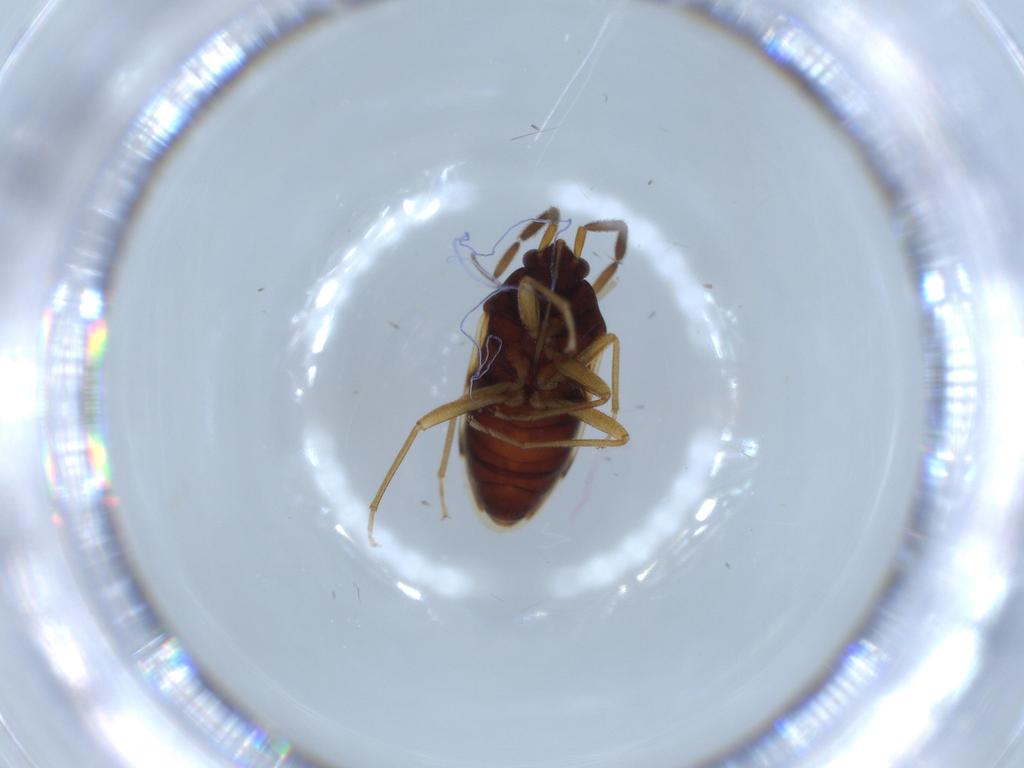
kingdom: Animalia
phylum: Arthropoda
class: Insecta
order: Hemiptera
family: Rhyparochromidae
